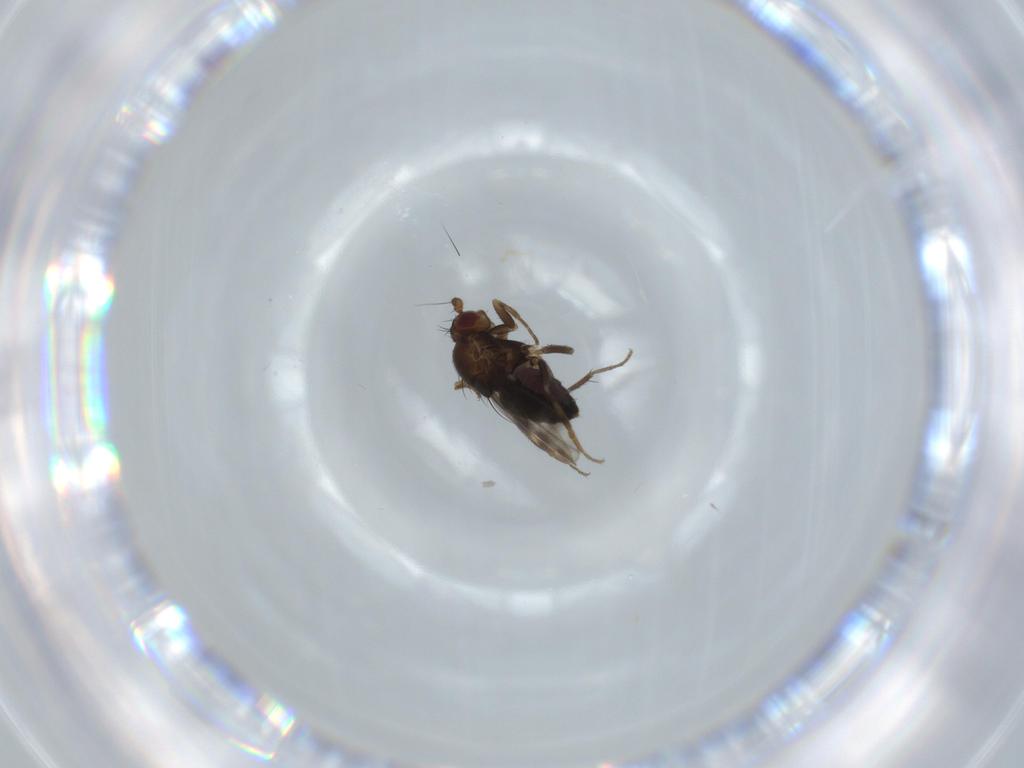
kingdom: Animalia
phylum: Arthropoda
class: Insecta
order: Diptera
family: Sphaeroceridae
